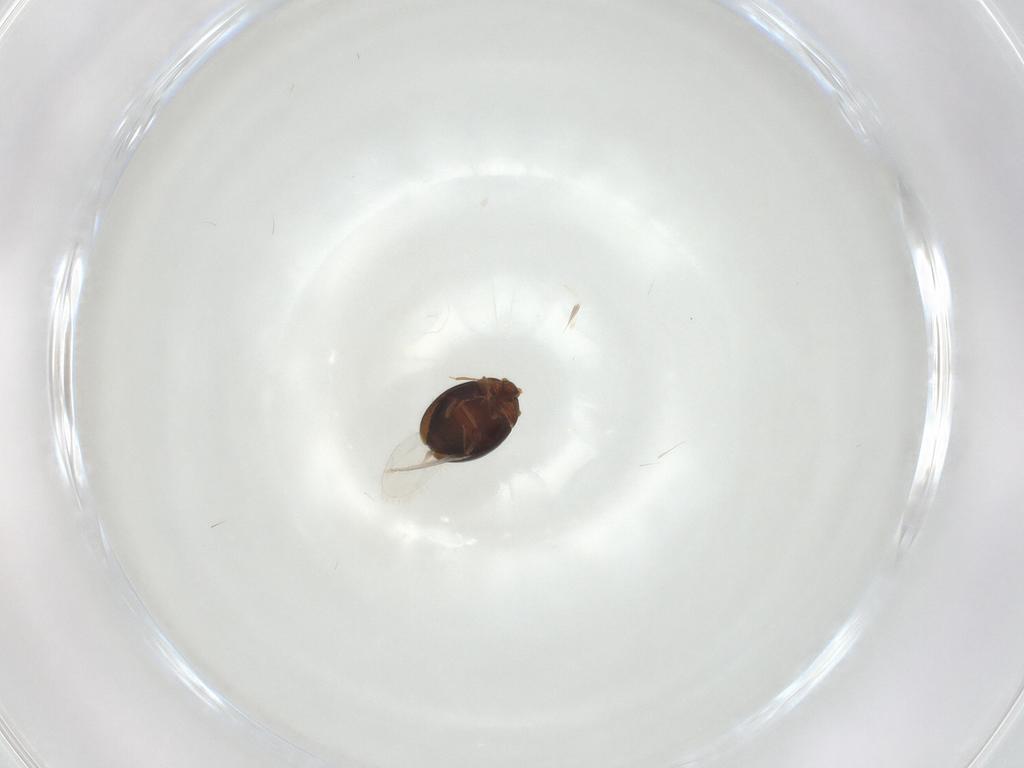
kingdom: Animalia
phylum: Arthropoda
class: Insecta
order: Coleoptera
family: Corylophidae
